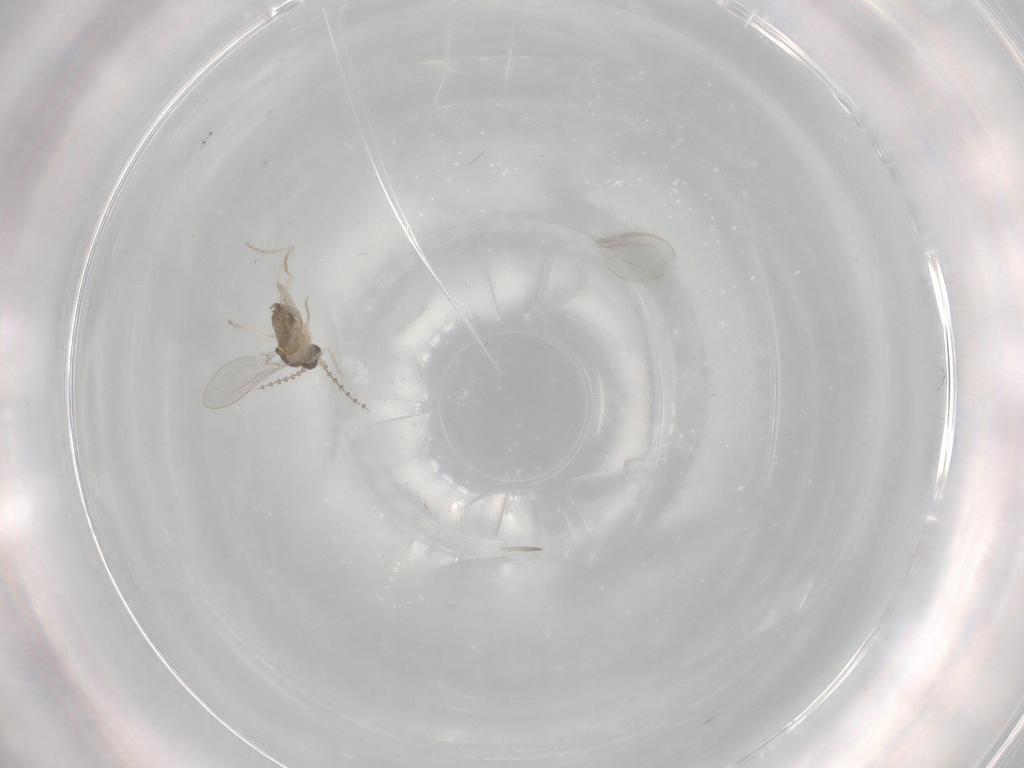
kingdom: Animalia
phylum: Arthropoda
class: Insecta
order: Diptera
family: Cecidomyiidae
